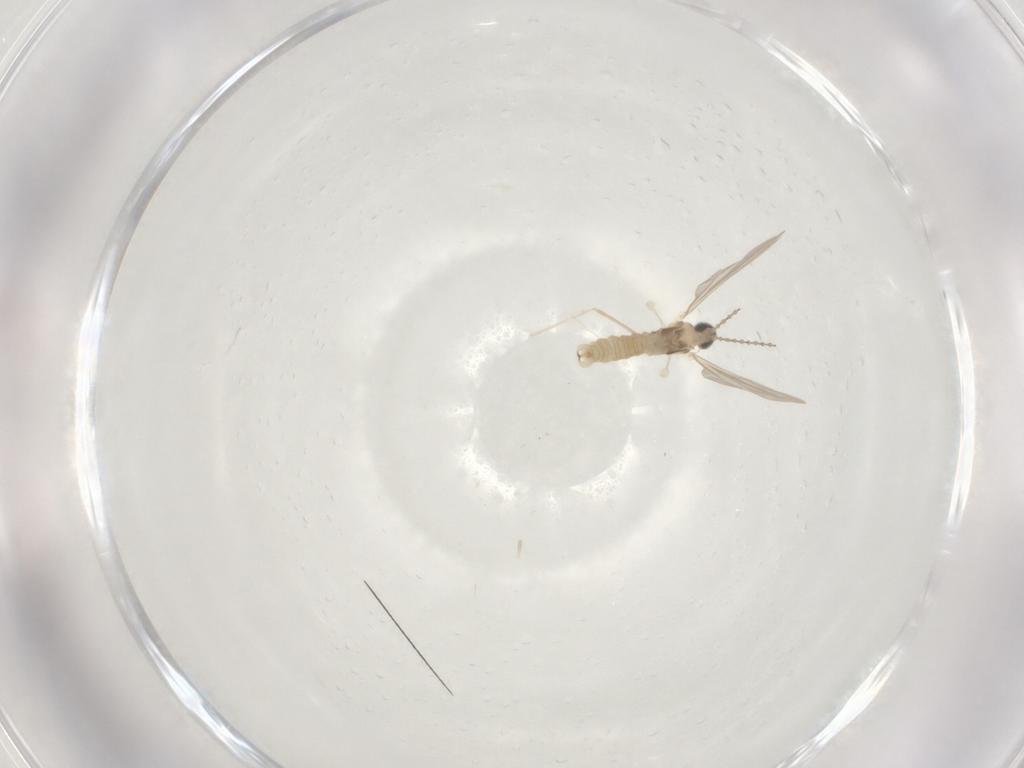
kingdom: Animalia
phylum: Arthropoda
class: Insecta
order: Diptera
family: Cecidomyiidae
